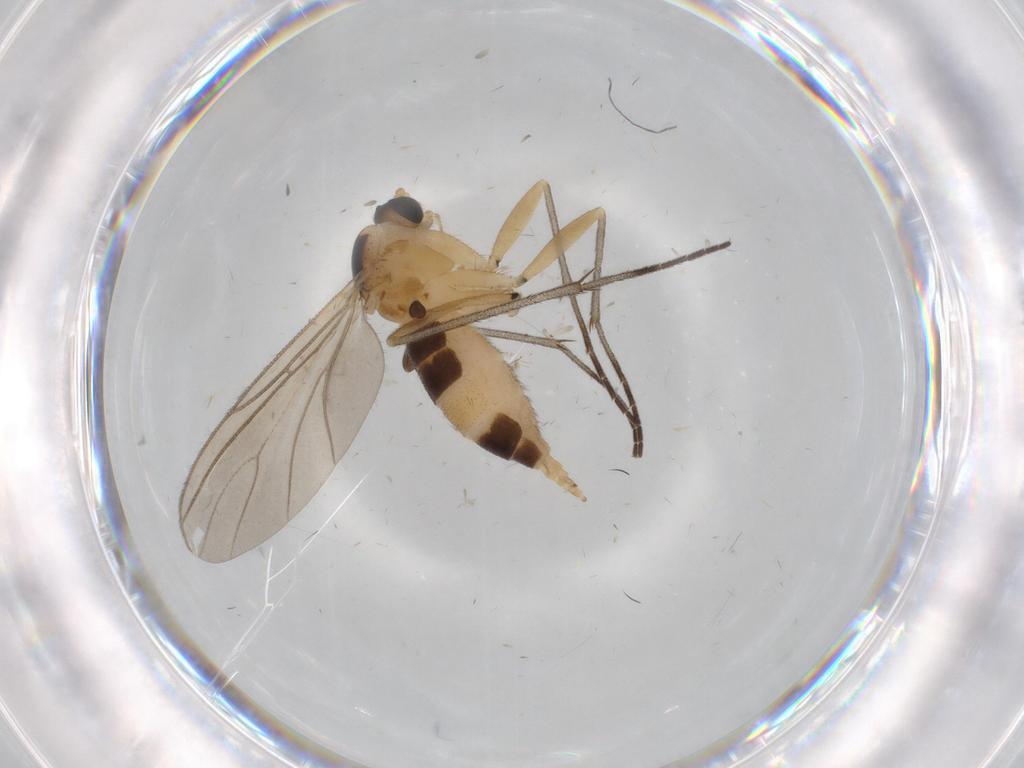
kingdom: Animalia
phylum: Arthropoda
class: Insecta
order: Diptera
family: Sciaridae
